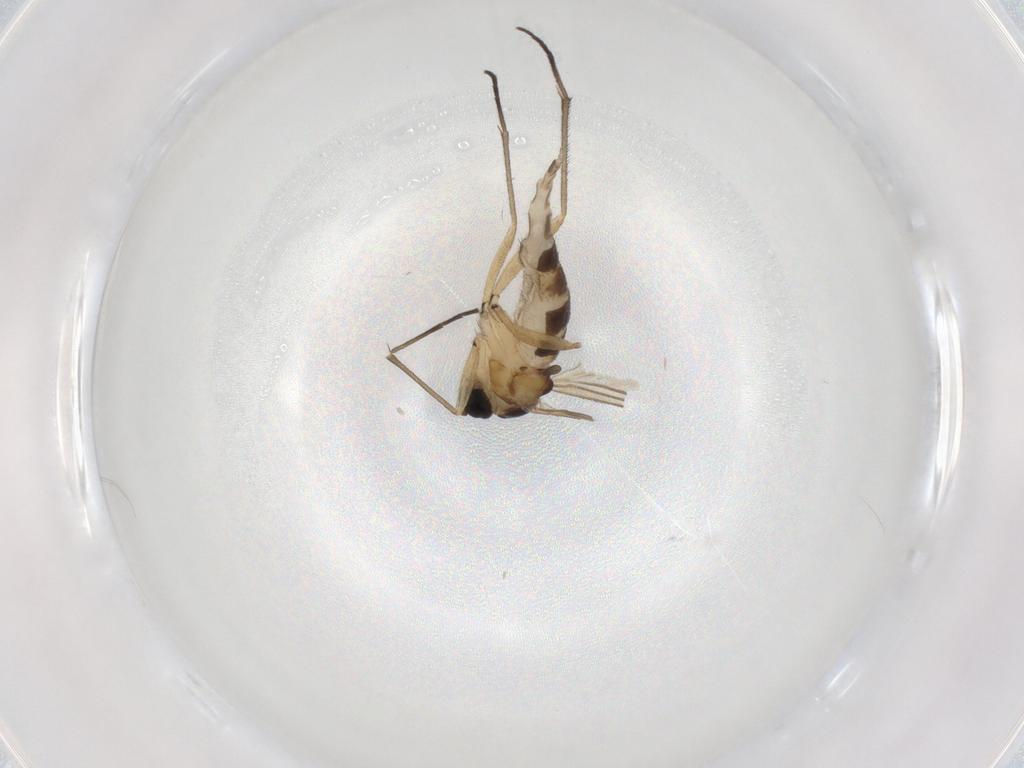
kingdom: Animalia
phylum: Arthropoda
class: Insecta
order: Diptera
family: Sciaridae
